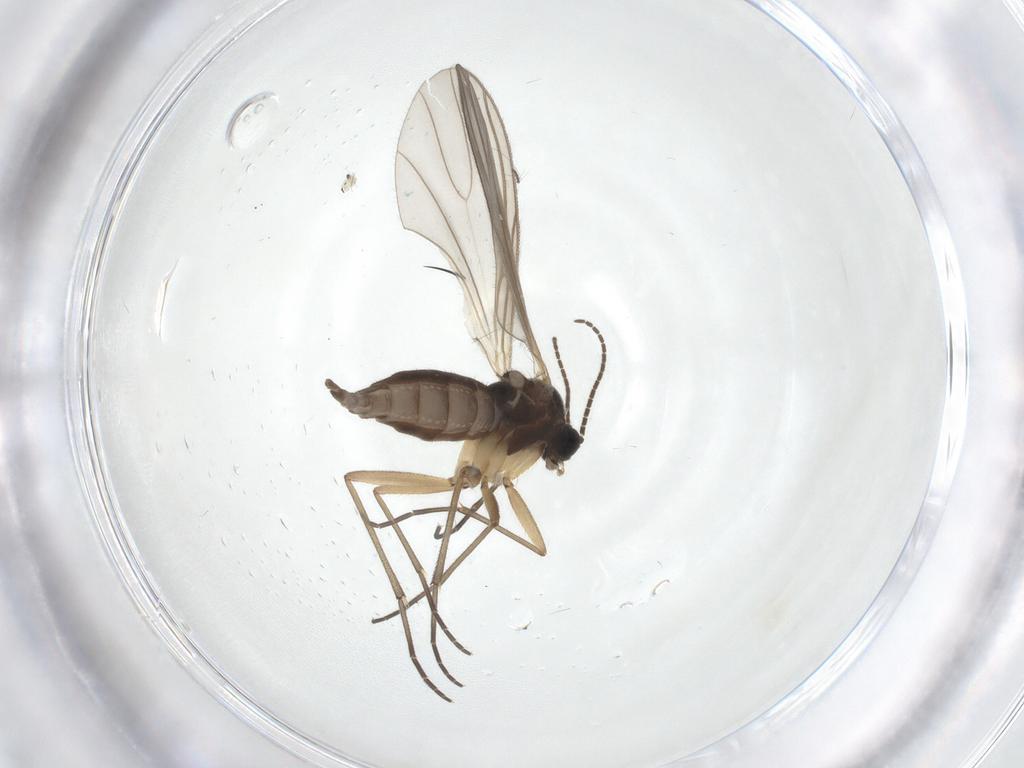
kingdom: Animalia
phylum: Arthropoda
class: Insecta
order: Diptera
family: Sciaridae
